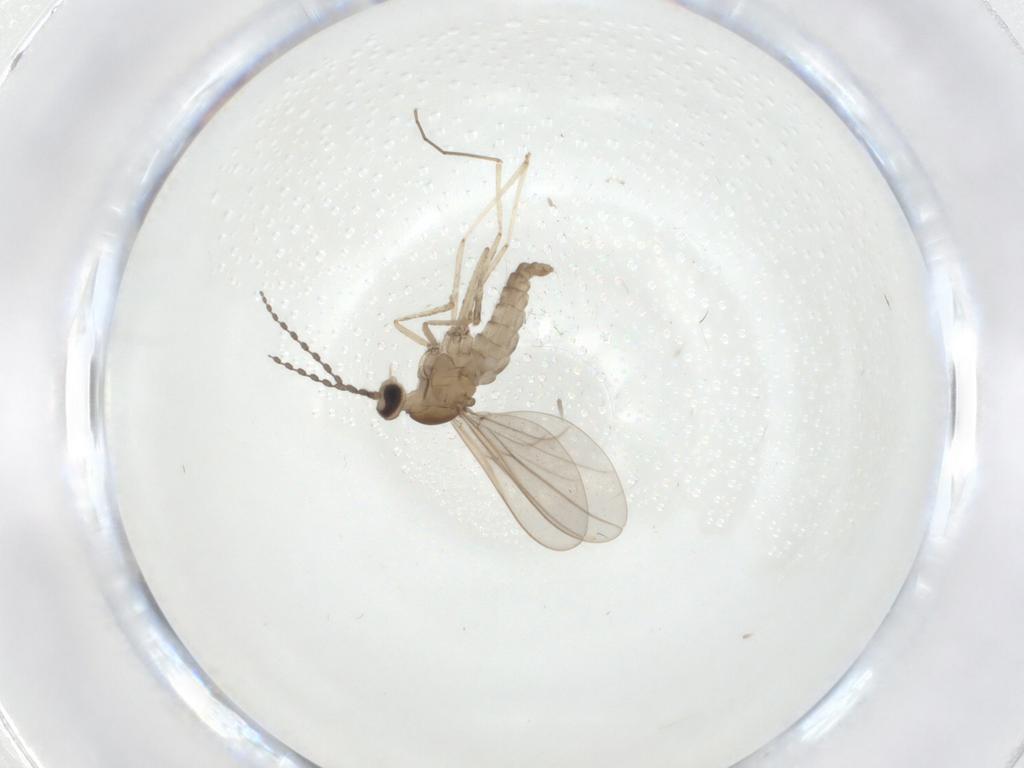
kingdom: Animalia
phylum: Arthropoda
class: Insecta
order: Diptera
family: Cecidomyiidae
